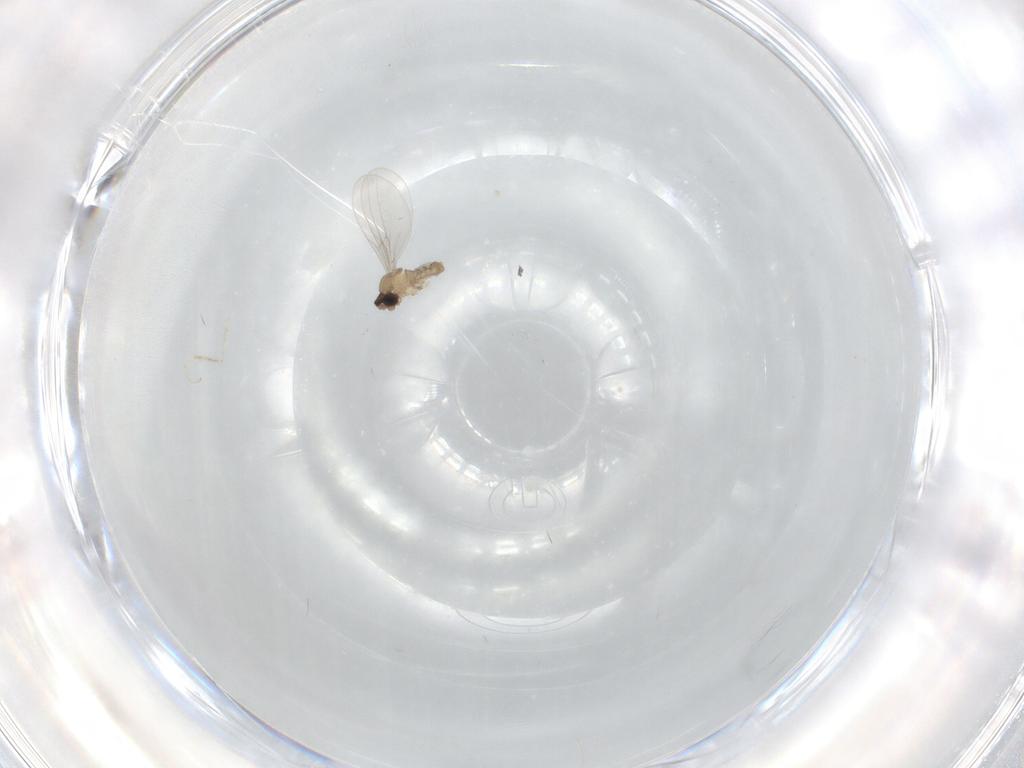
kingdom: Animalia
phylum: Arthropoda
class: Insecta
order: Diptera
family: Cecidomyiidae
